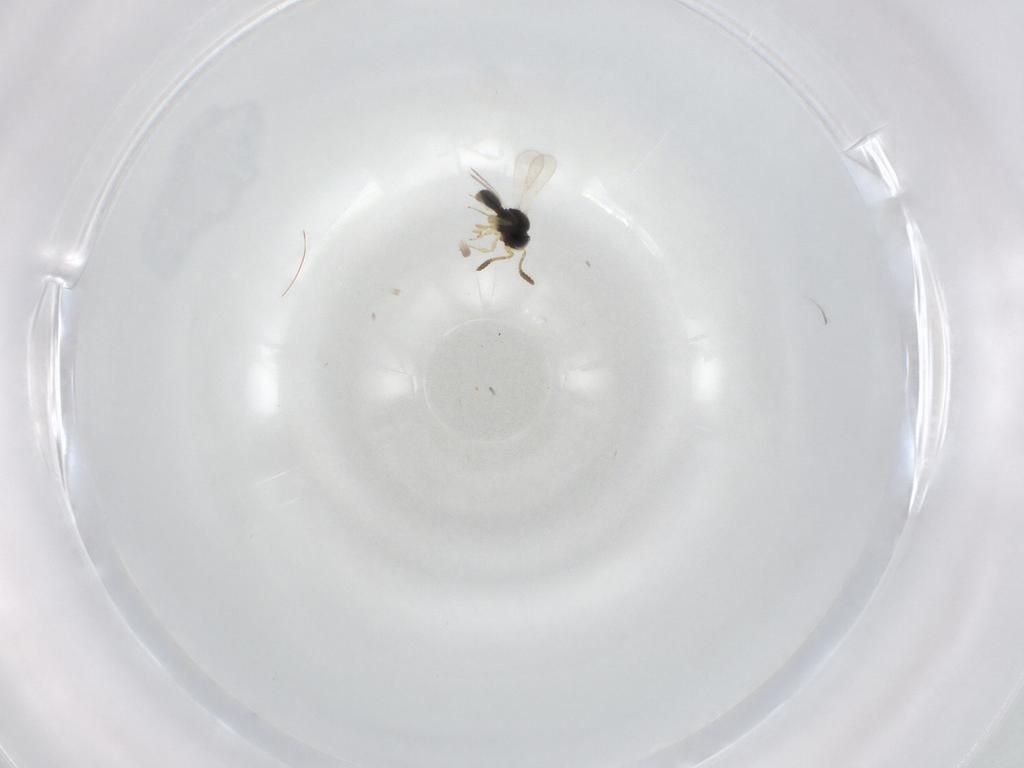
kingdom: Animalia
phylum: Arthropoda
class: Insecta
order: Hymenoptera
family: Scelionidae
